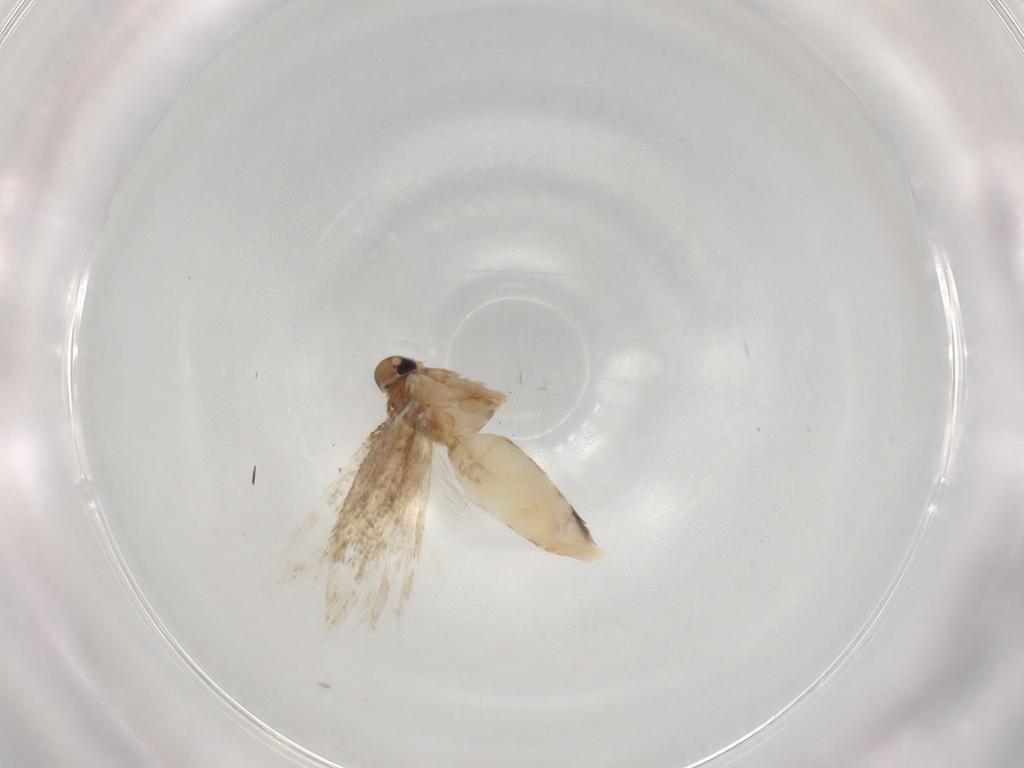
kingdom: Animalia
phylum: Arthropoda
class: Insecta
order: Lepidoptera
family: Cosmopterigidae
